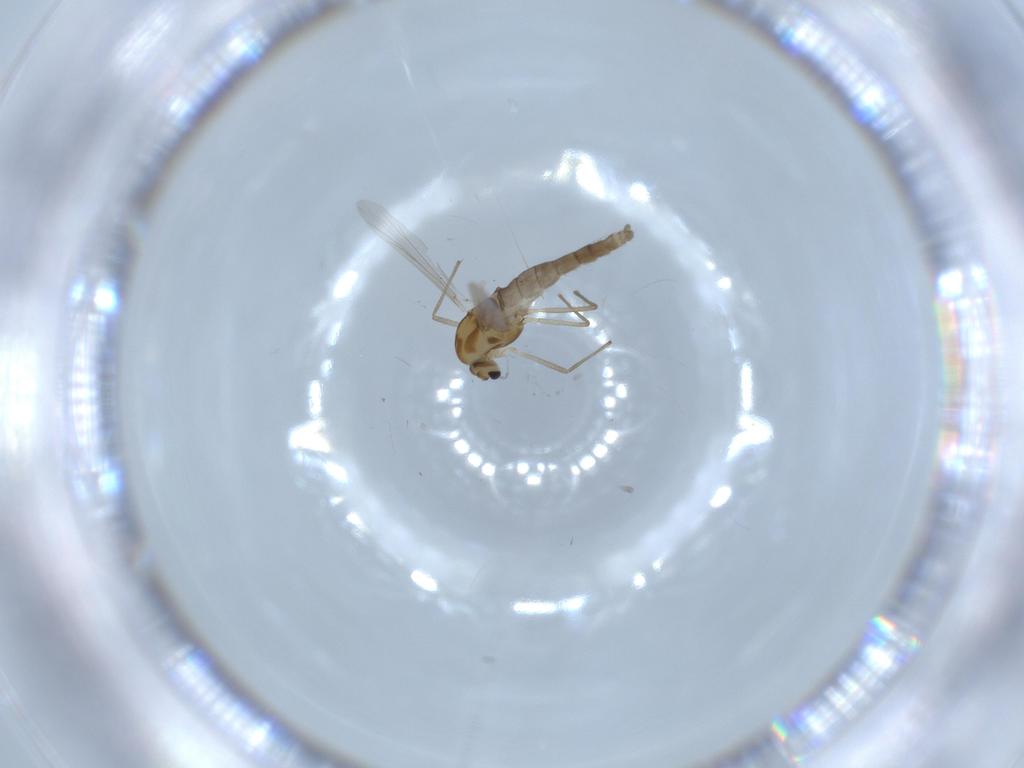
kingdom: Animalia
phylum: Arthropoda
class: Insecta
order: Diptera
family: Chironomidae
